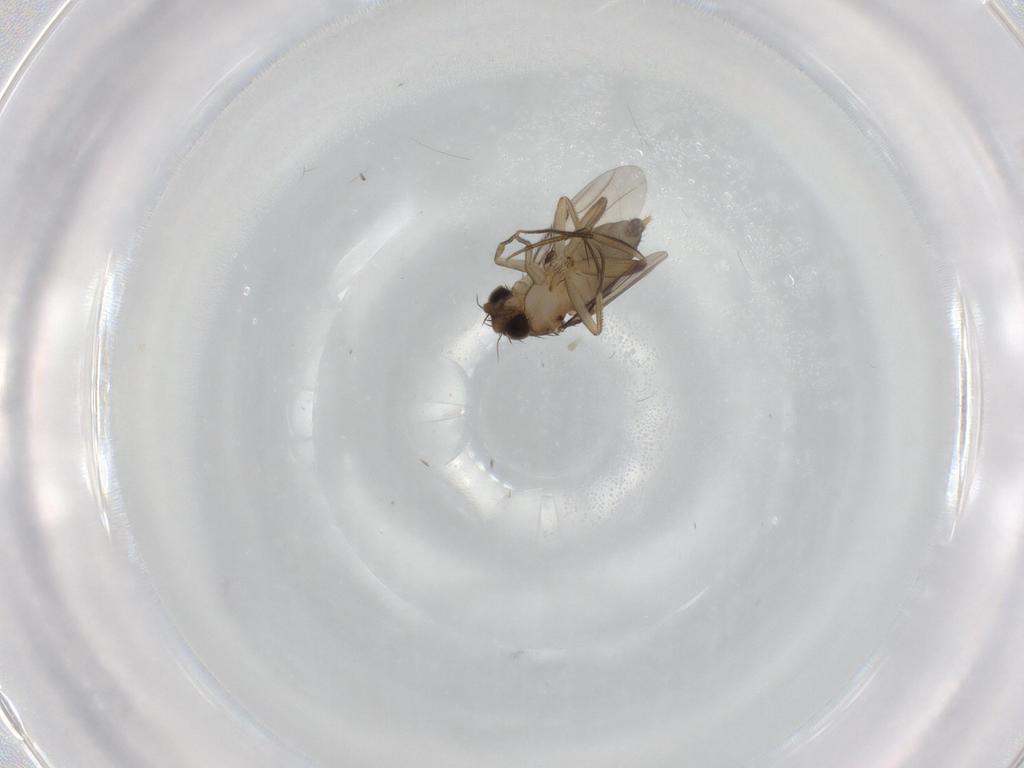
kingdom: Animalia
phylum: Arthropoda
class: Insecta
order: Diptera
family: Phoridae
